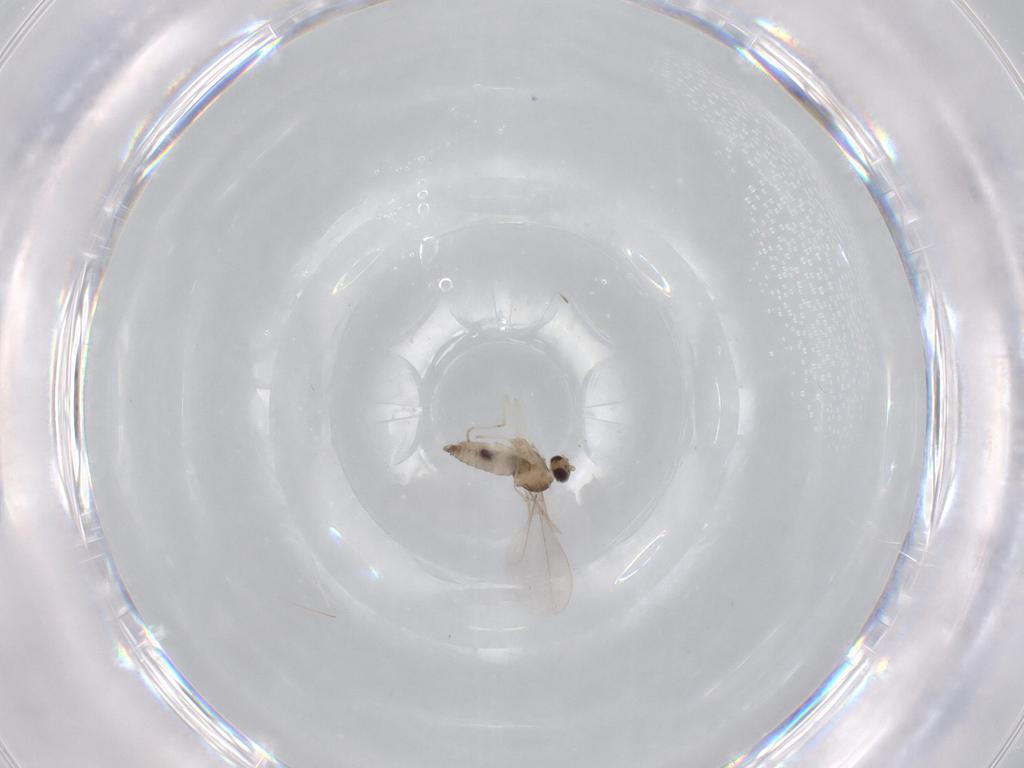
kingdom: Animalia
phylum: Arthropoda
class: Insecta
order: Diptera
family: Cecidomyiidae
